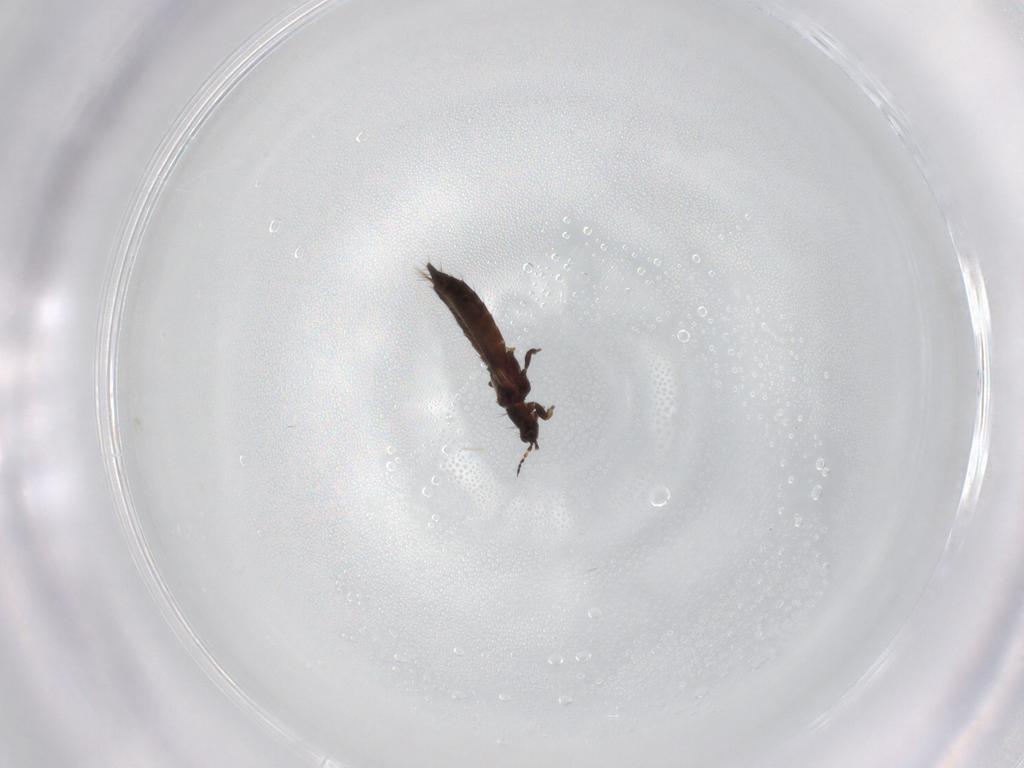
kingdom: Animalia
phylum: Arthropoda
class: Insecta
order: Thysanoptera
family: Thripidae
